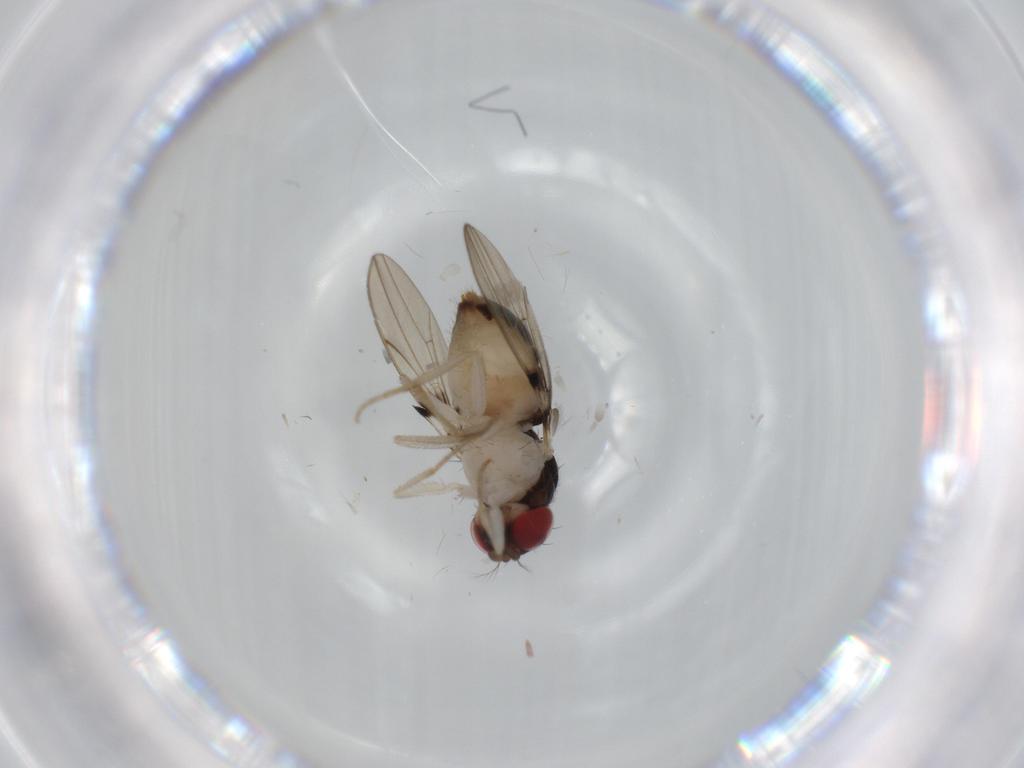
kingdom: Animalia
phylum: Arthropoda
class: Insecta
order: Diptera
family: Drosophilidae
